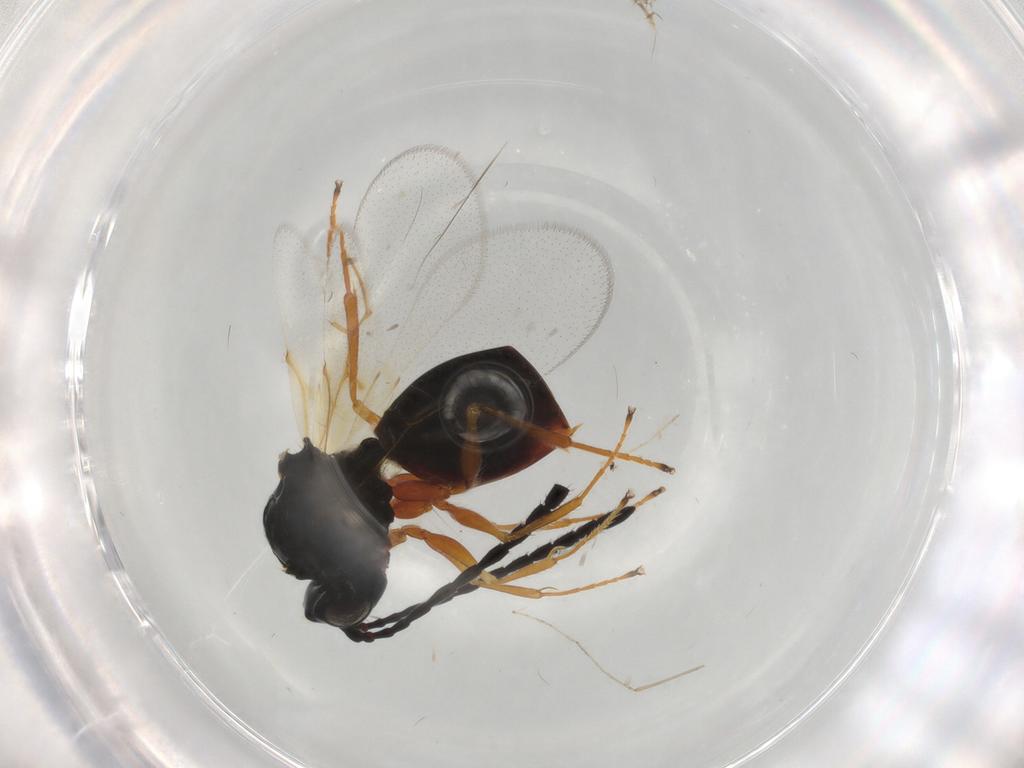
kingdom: Animalia
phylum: Arthropoda
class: Insecta
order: Hymenoptera
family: Figitidae
